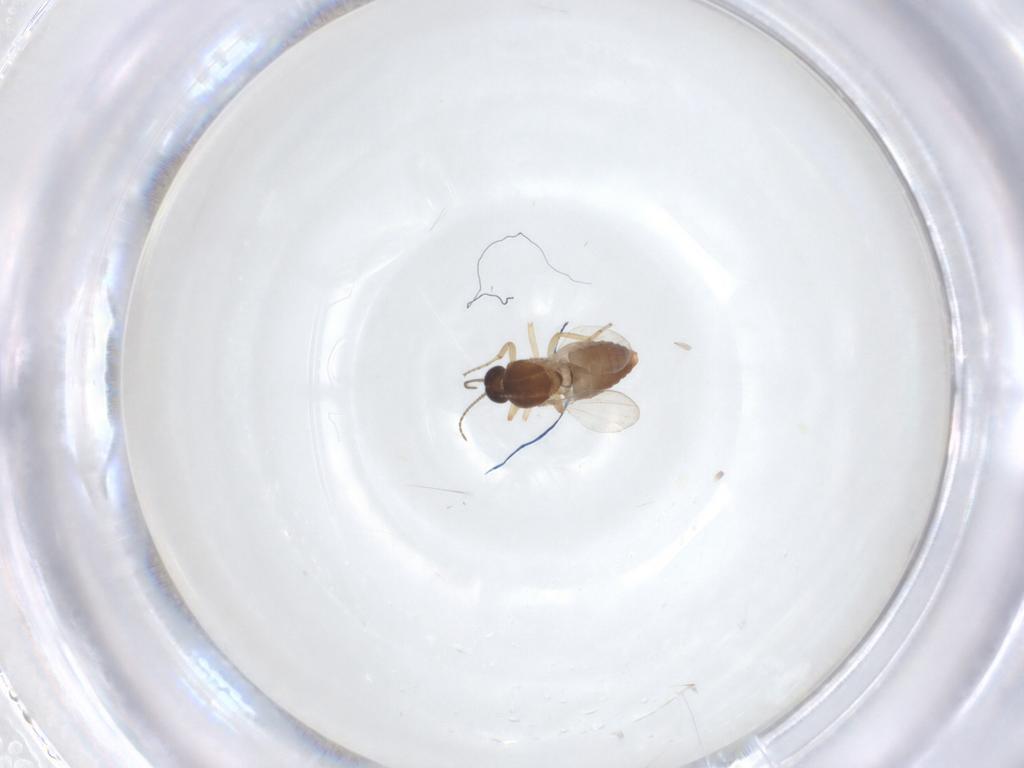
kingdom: Animalia
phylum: Arthropoda
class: Insecta
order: Diptera
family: Ceratopogonidae
